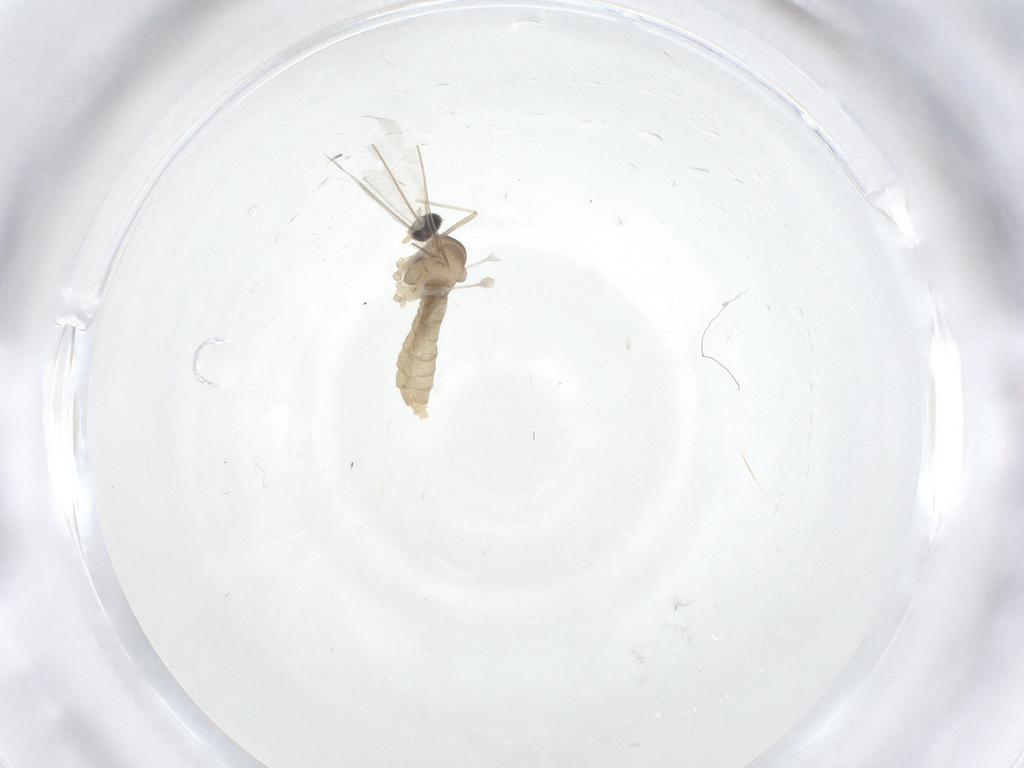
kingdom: Animalia
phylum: Arthropoda
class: Insecta
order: Diptera
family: Cecidomyiidae
